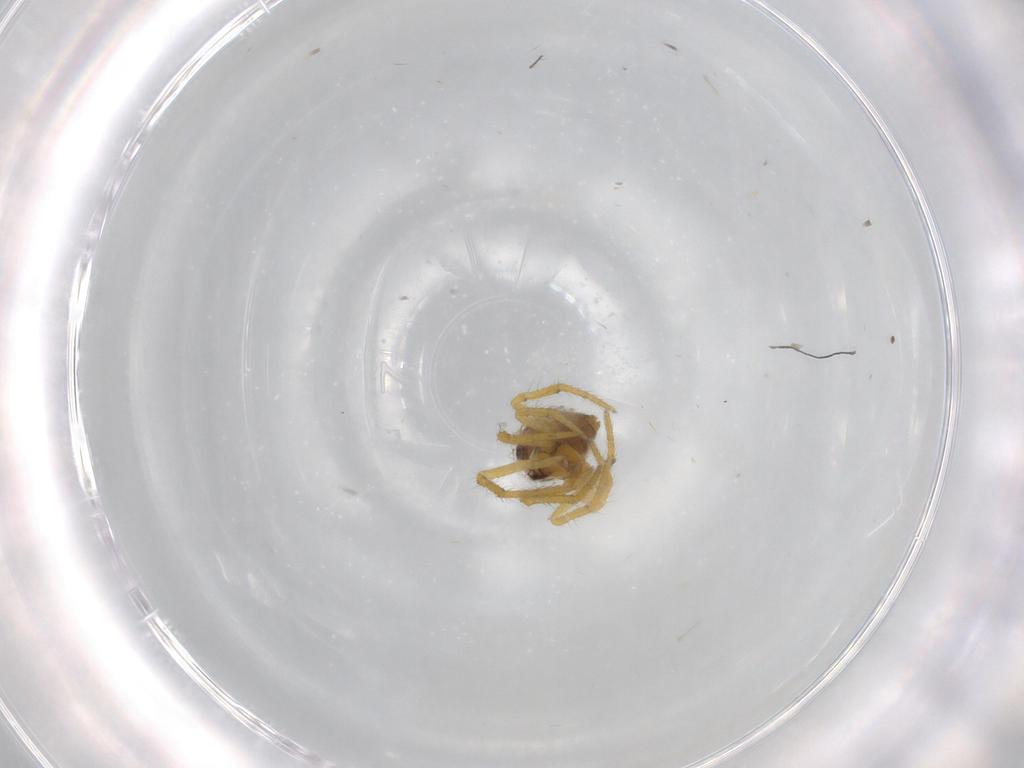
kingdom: Animalia
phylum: Arthropoda
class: Arachnida
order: Araneae
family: Theridiidae
